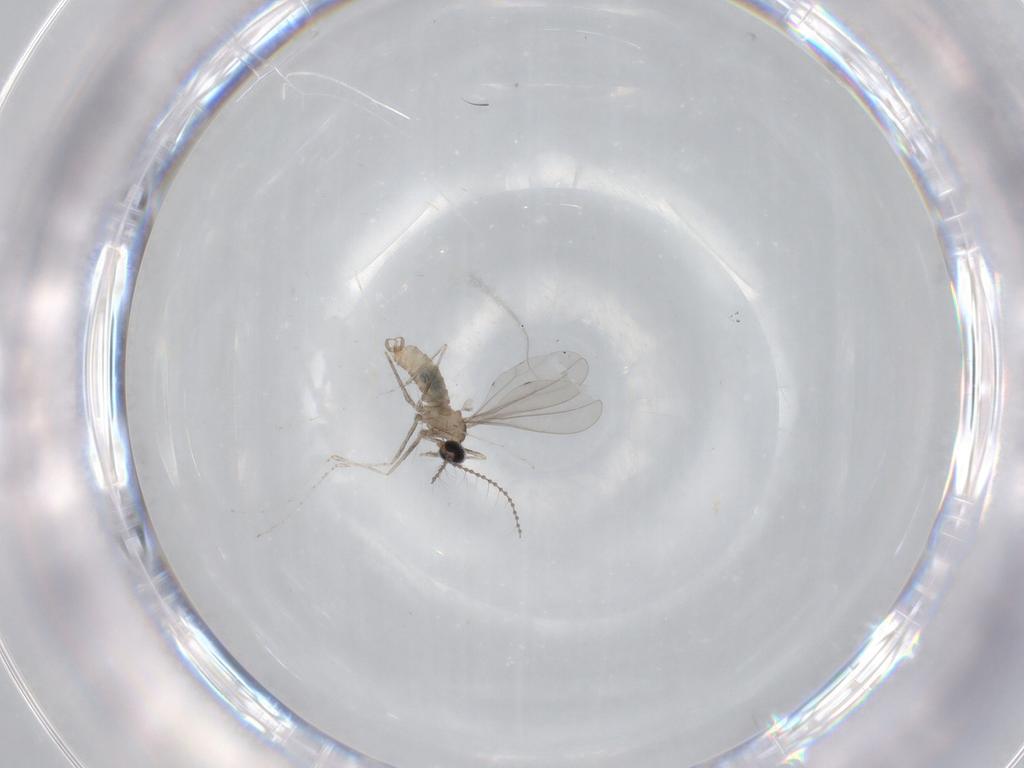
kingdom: Animalia
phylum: Arthropoda
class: Insecta
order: Diptera
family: Cecidomyiidae
